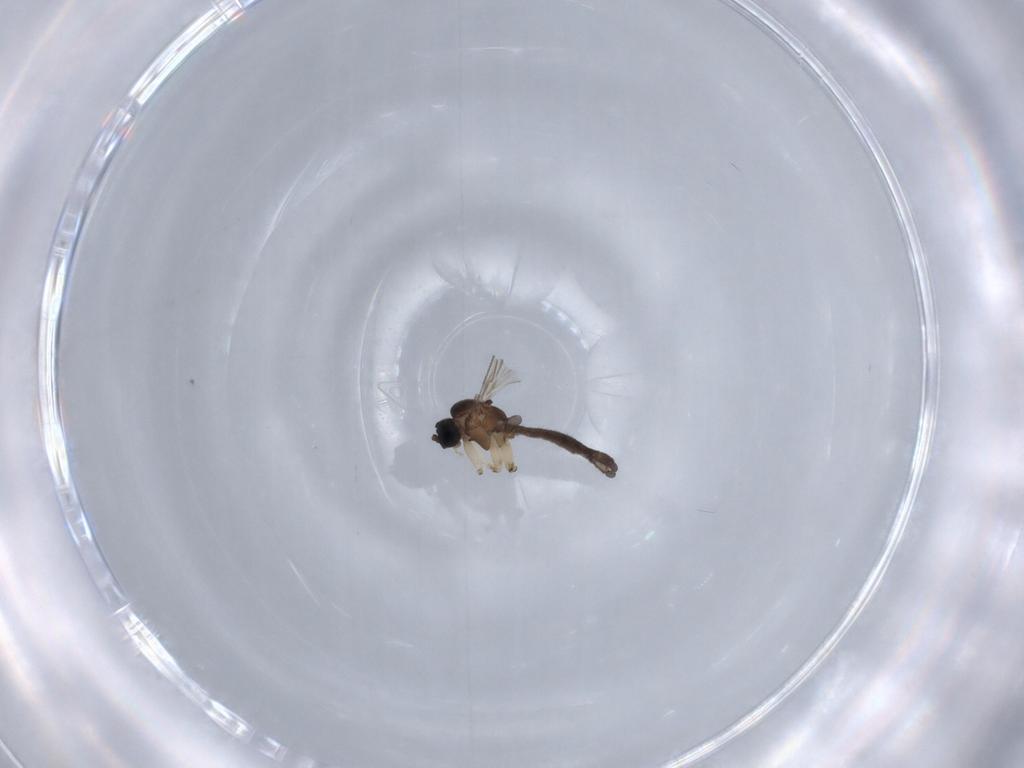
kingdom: Animalia
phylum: Arthropoda
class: Insecta
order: Diptera
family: Sciaridae
